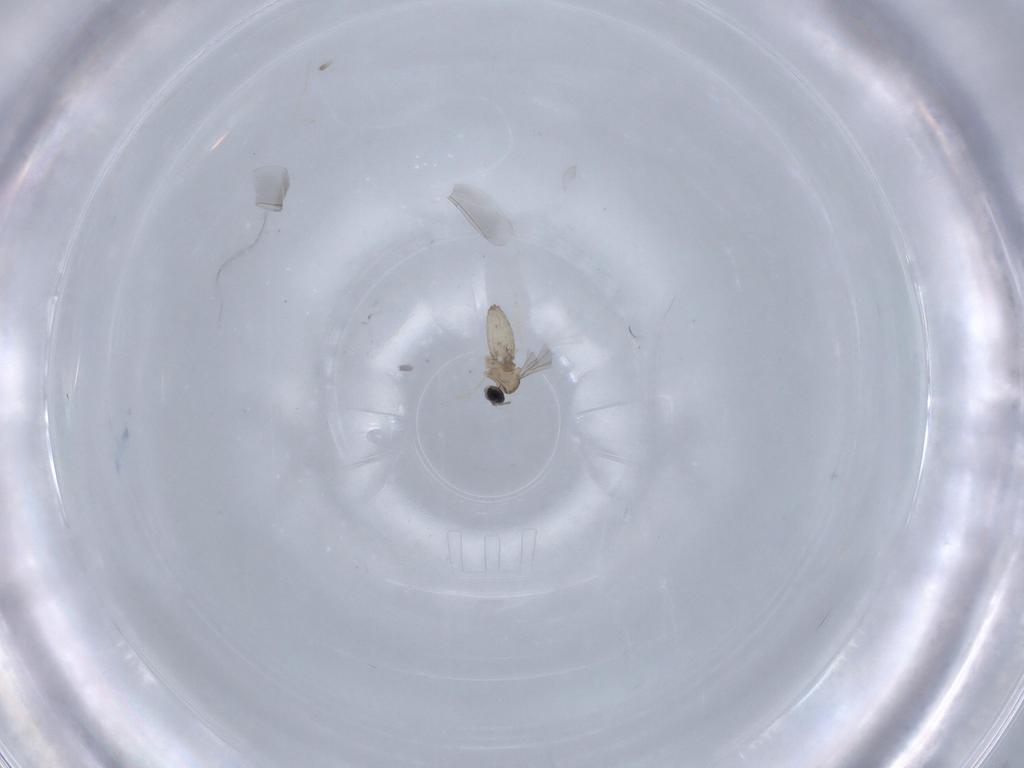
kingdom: Animalia
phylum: Arthropoda
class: Insecta
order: Diptera
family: Cecidomyiidae
